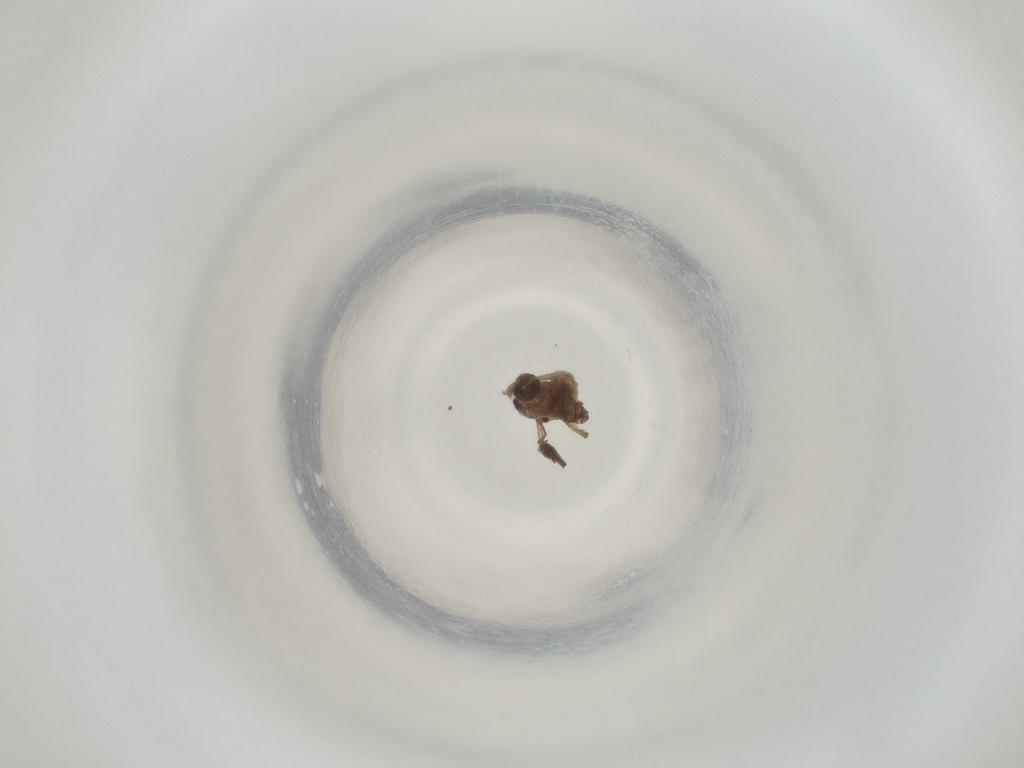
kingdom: Animalia
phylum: Arthropoda
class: Insecta
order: Diptera
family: Cecidomyiidae
